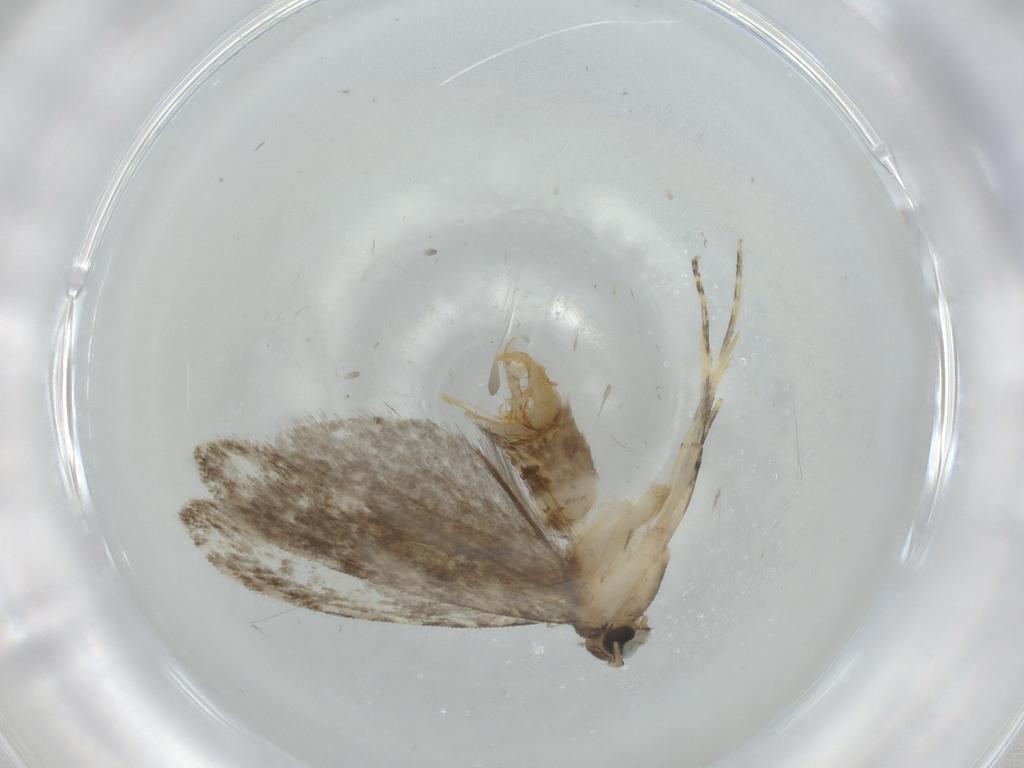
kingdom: Animalia
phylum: Arthropoda
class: Insecta
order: Lepidoptera
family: Tineidae
